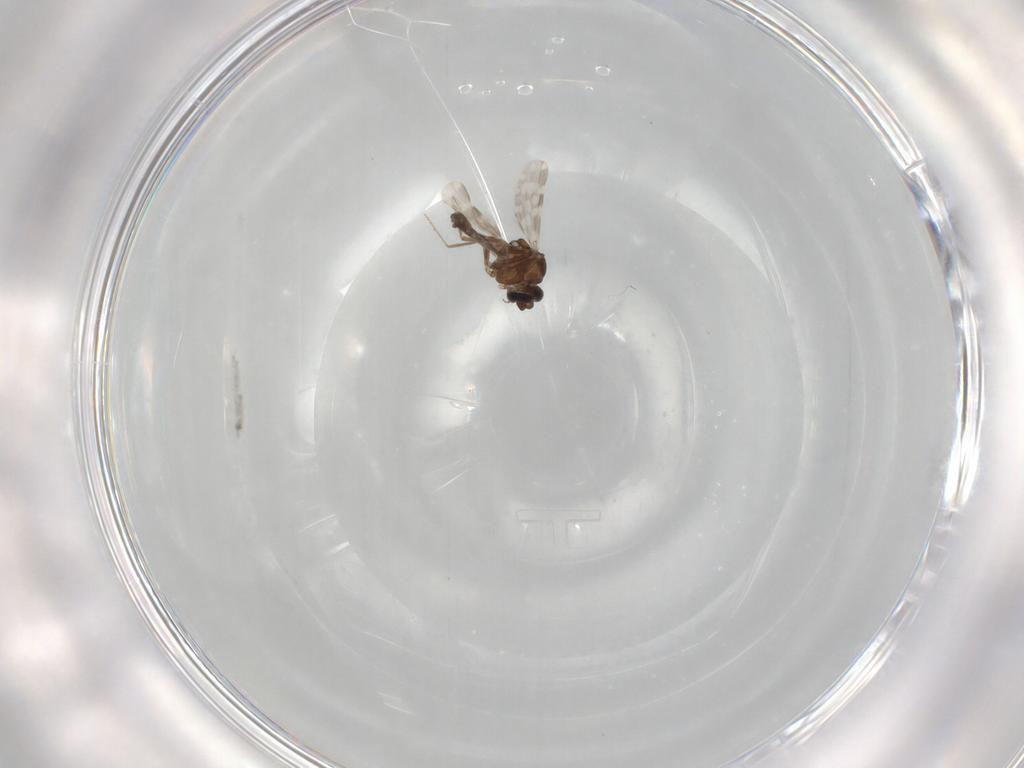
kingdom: Animalia
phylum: Arthropoda
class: Insecta
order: Diptera
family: Ceratopogonidae
